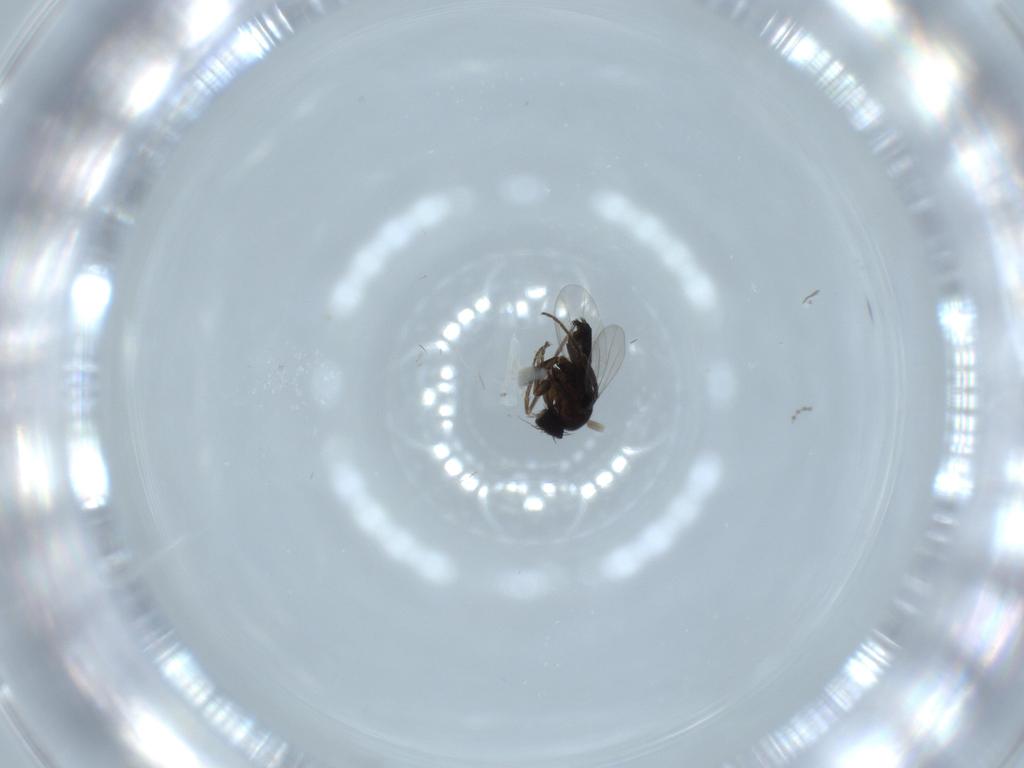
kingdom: Animalia
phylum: Arthropoda
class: Insecta
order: Diptera
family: Phoridae
